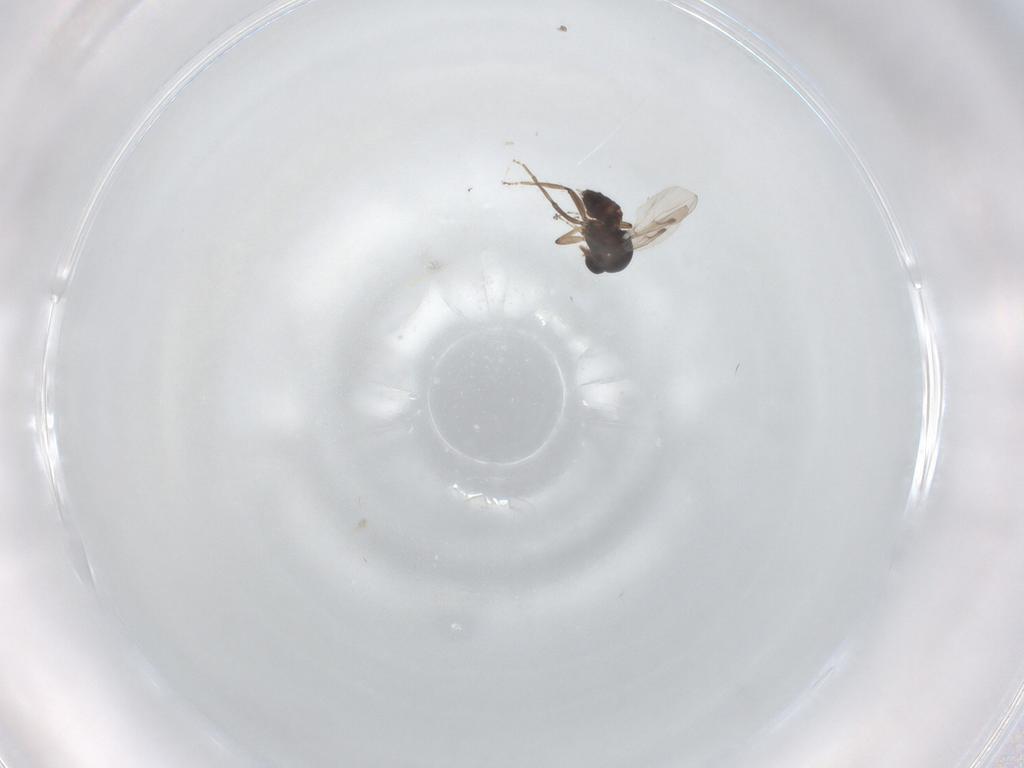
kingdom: Animalia
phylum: Arthropoda
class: Insecta
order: Diptera
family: Ceratopogonidae
